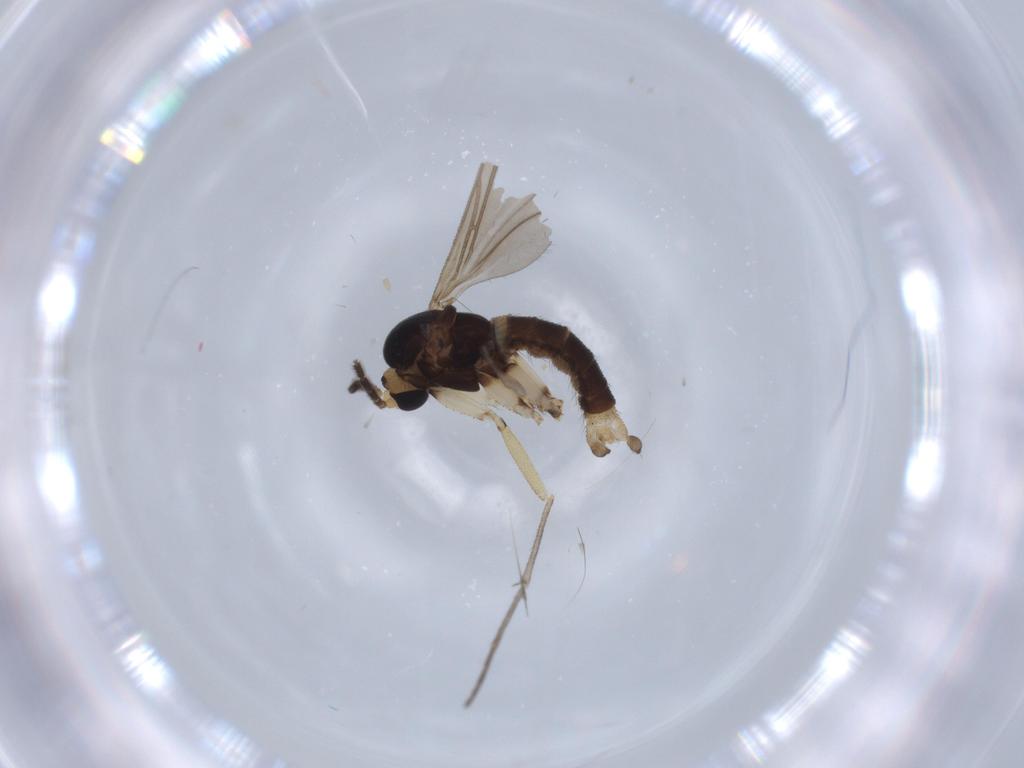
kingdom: Animalia
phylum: Arthropoda
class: Insecta
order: Diptera
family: Sciaridae
